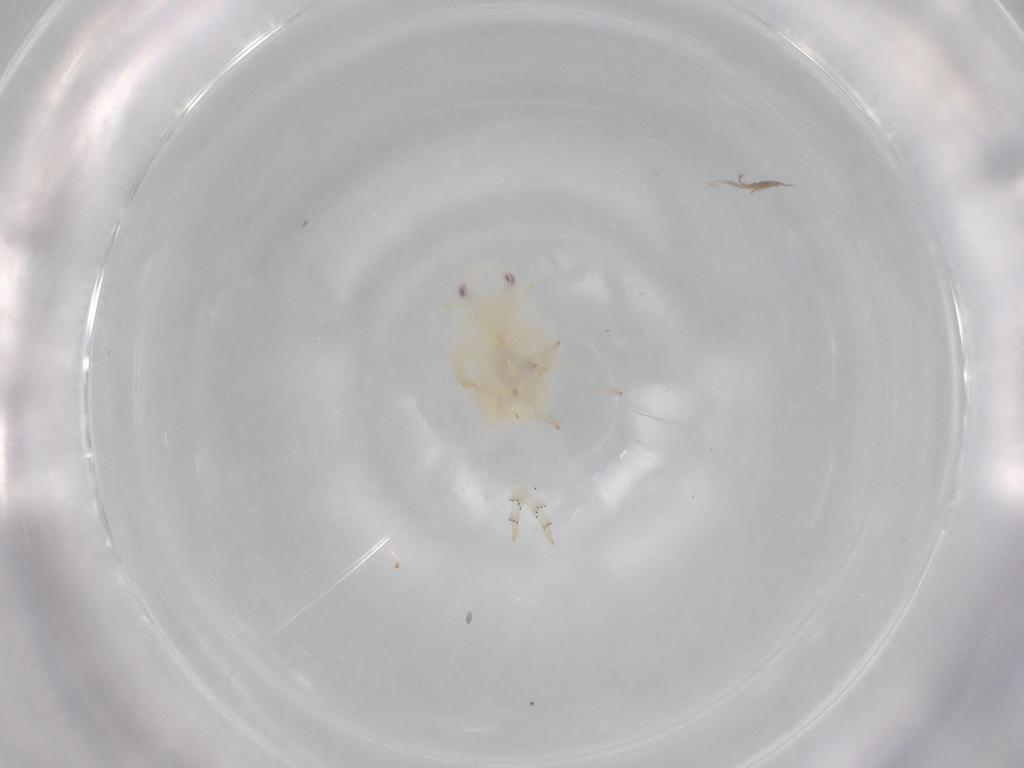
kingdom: Animalia
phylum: Arthropoda
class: Insecta
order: Hemiptera
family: Flatidae
